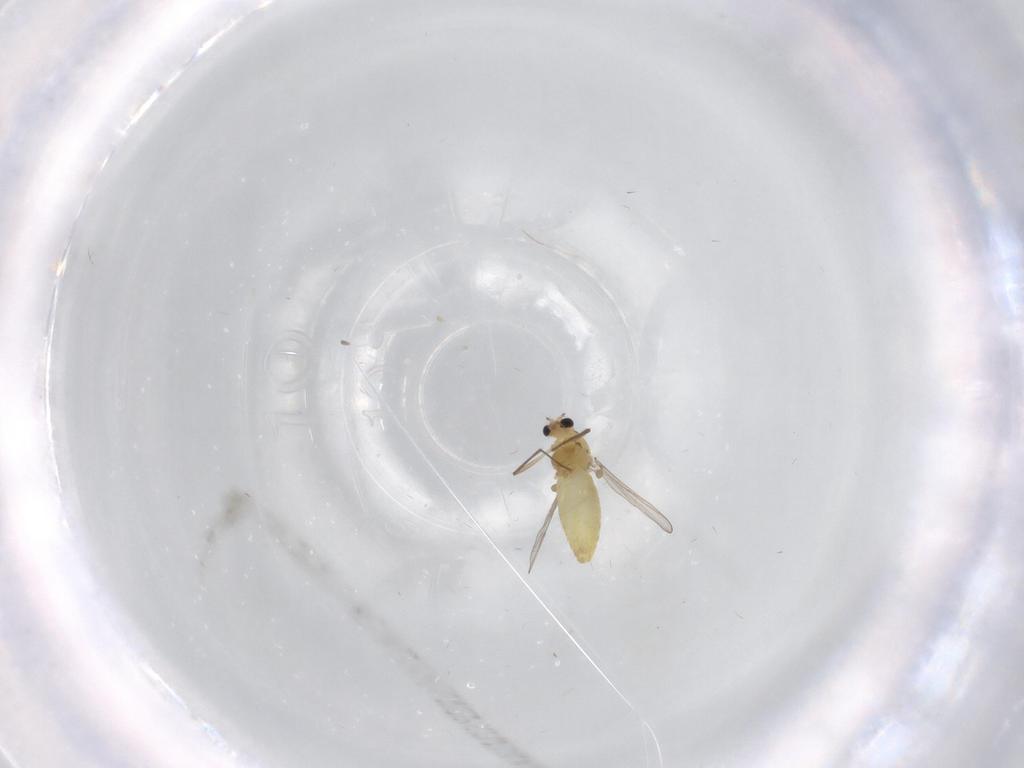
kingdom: Animalia
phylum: Arthropoda
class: Insecta
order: Diptera
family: Chironomidae
